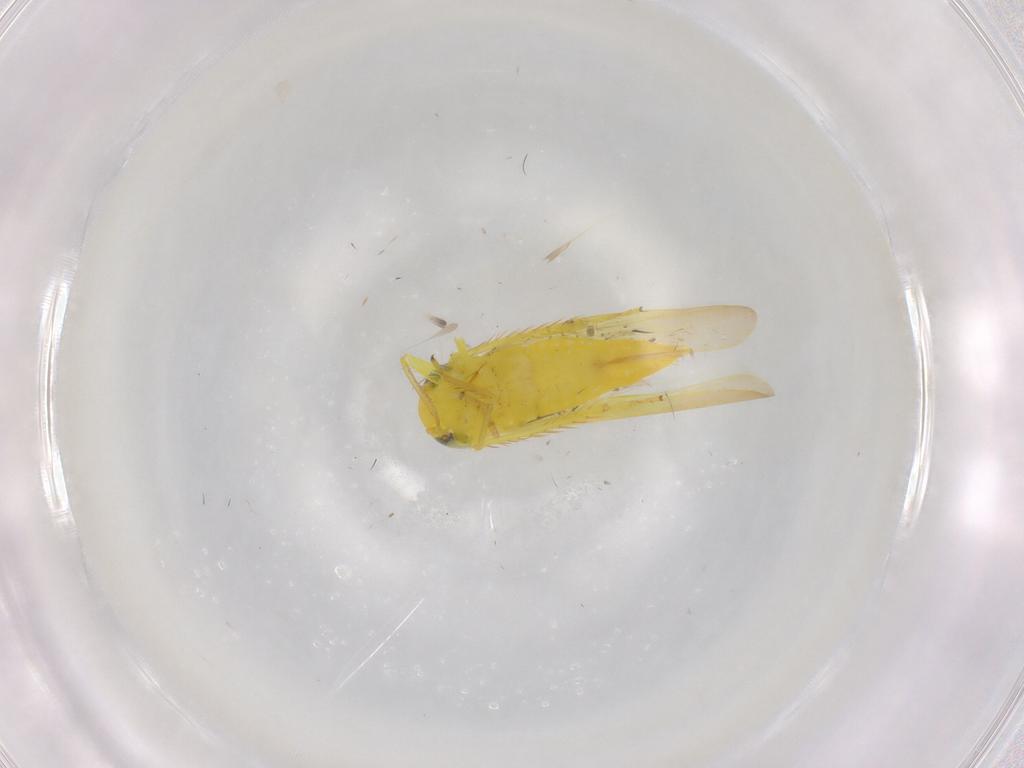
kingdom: Animalia
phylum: Arthropoda
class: Insecta
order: Hemiptera
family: Cicadellidae
